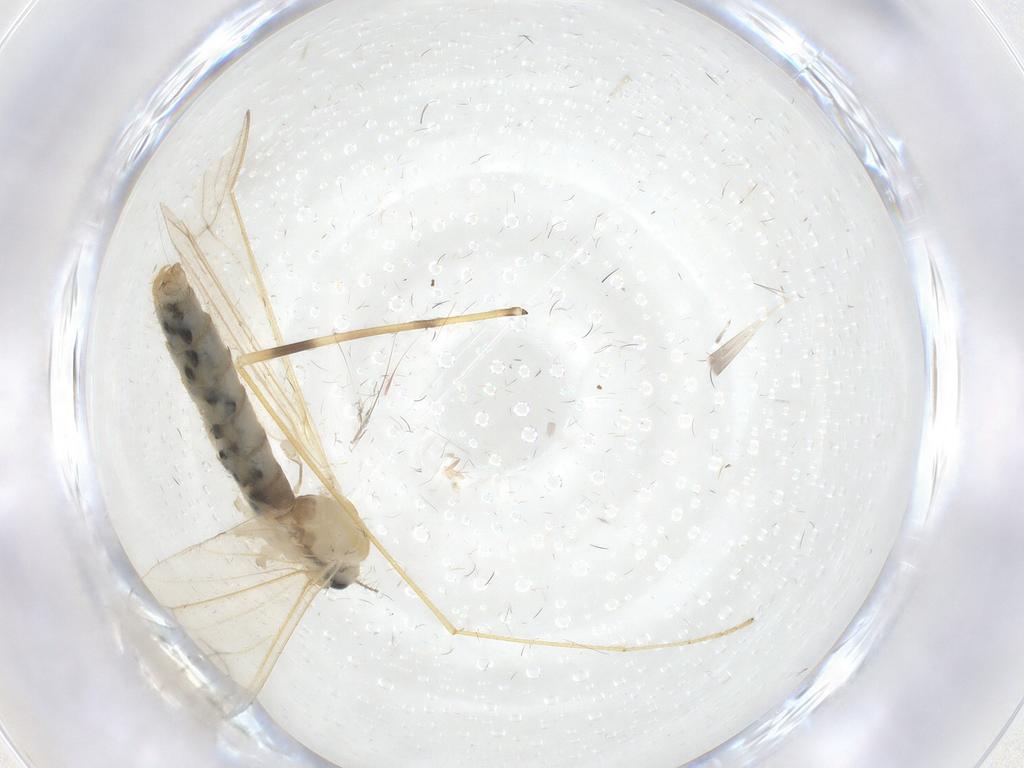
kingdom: Animalia
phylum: Arthropoda
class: Insecta
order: Diptera
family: Limoniidae
